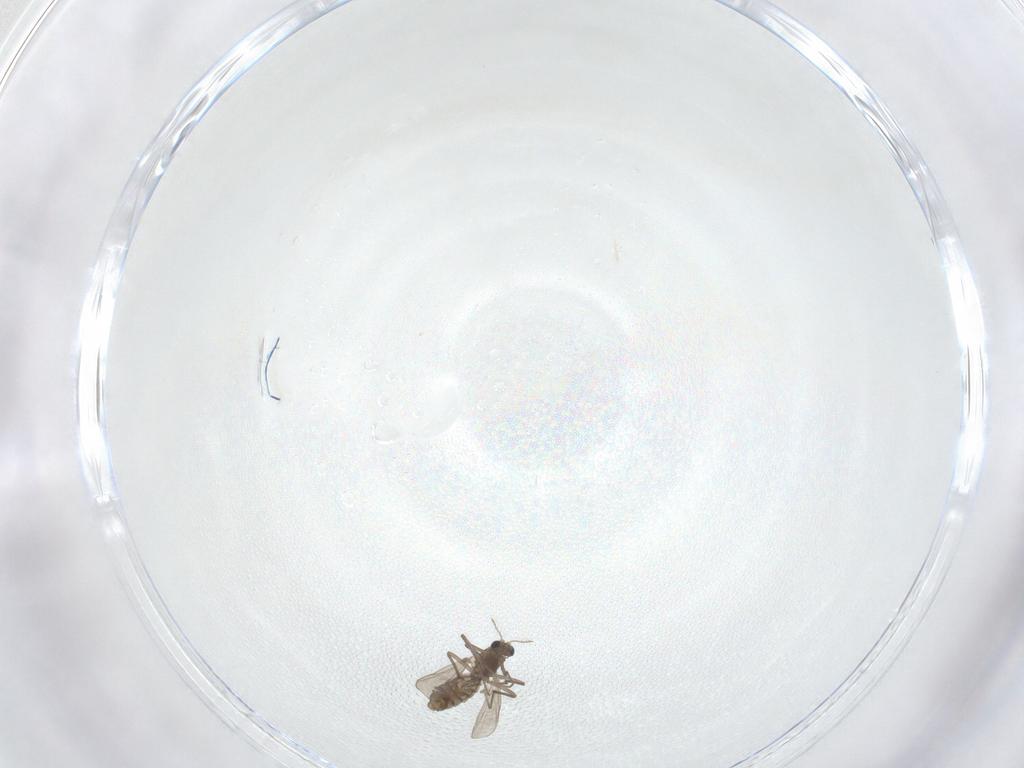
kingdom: Animalia
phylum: Arthropoda
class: Insecta
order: Diptera
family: Chironomidae
